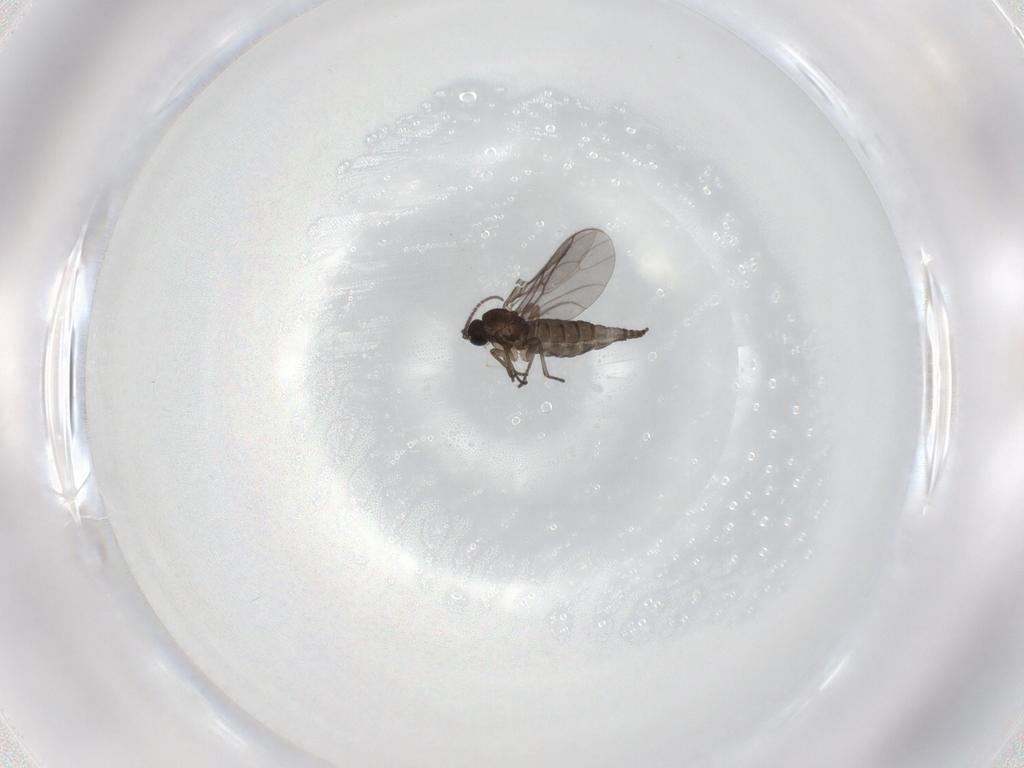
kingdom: Animalia
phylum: Arthropoda
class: Insecta
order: Diptera
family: Sciaridae
